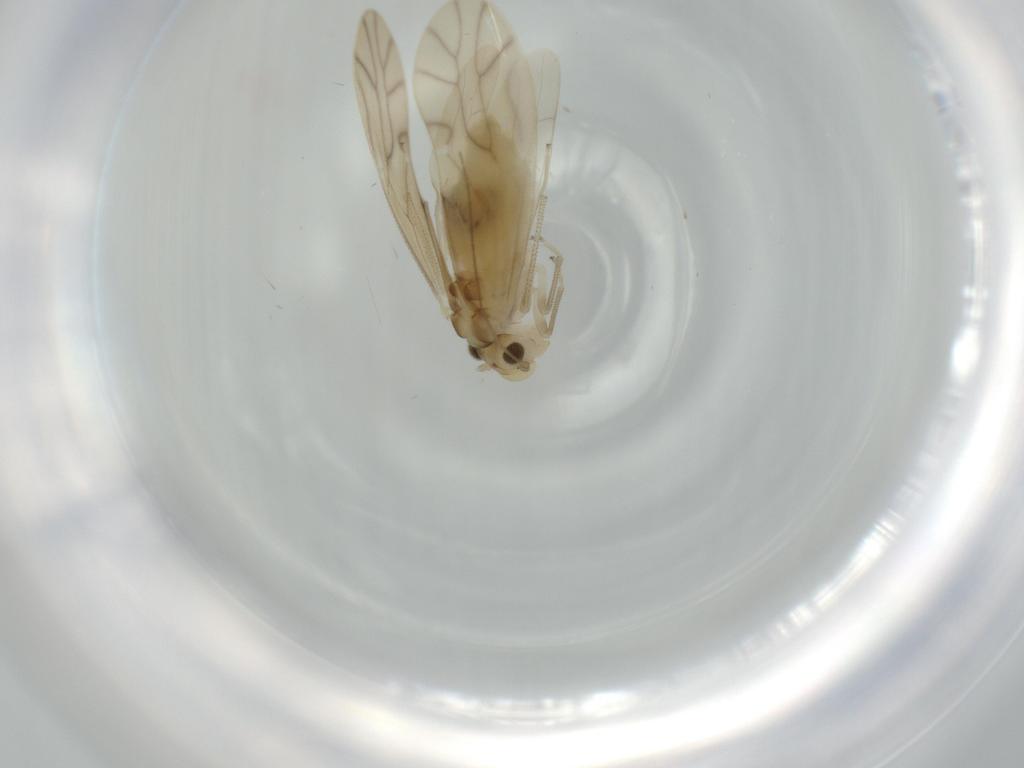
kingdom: Animalia
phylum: Arthropoda
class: Insecta
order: Psocodea
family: Caeciliusidae
